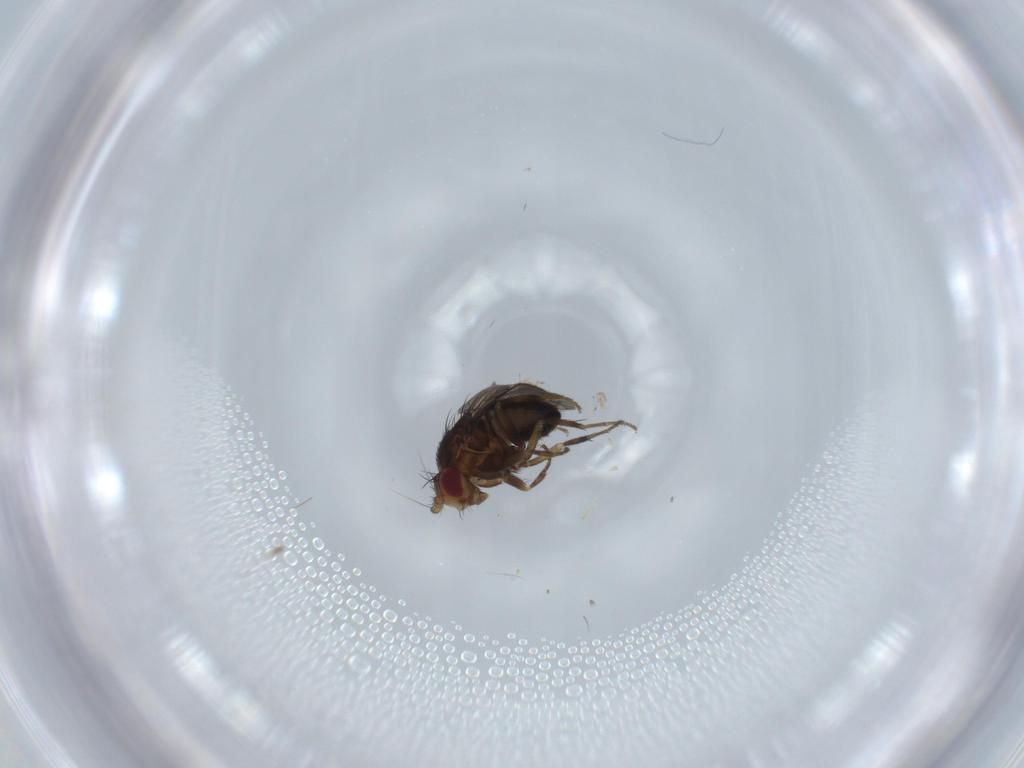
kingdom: Animalia
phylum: Arthropoda
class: Insecta
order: Diptera
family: Sphaeroceridae
